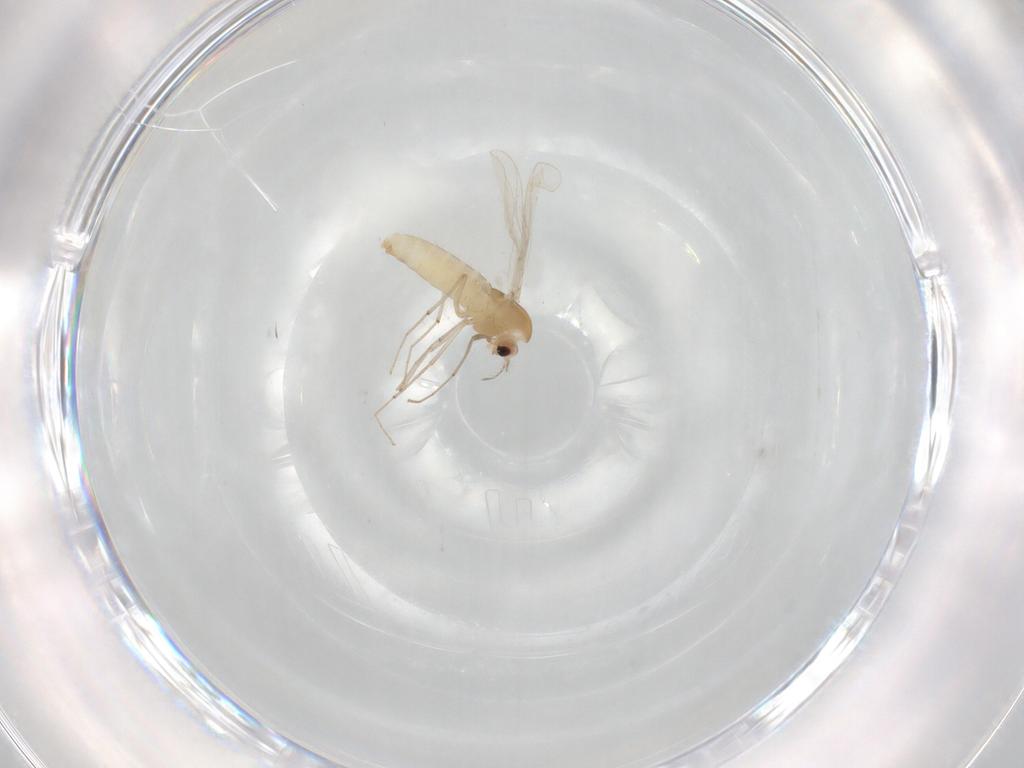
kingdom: Animalia
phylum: Arthropoda
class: Insecta
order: Diptera
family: Chironomidae
